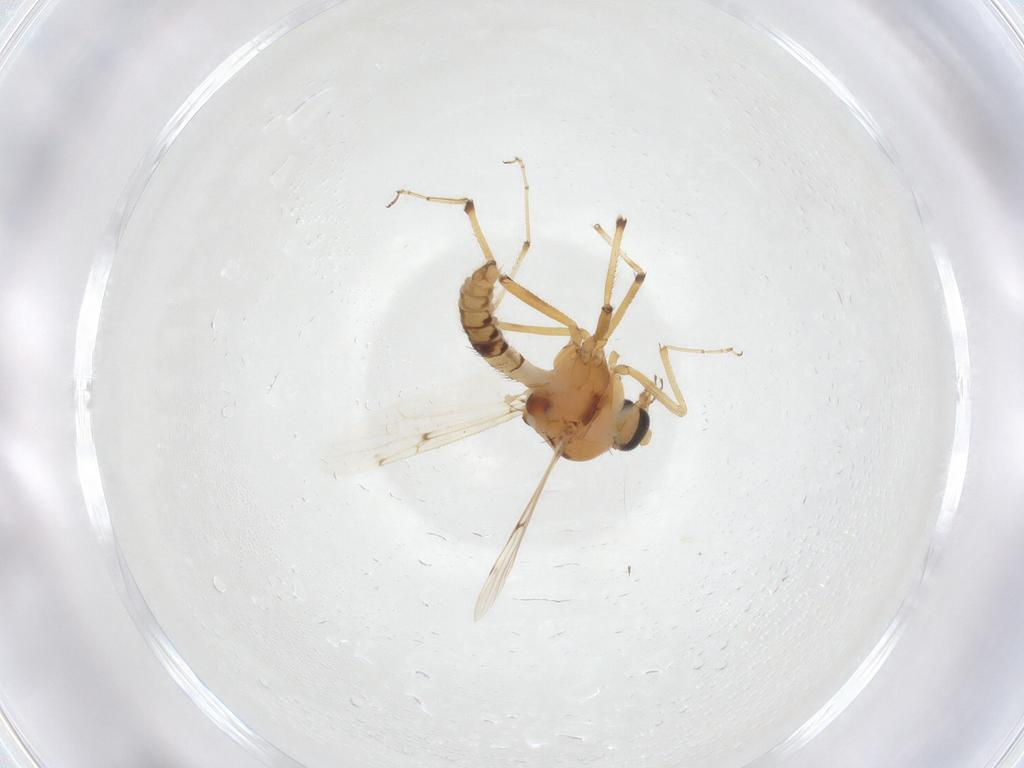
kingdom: Animalia
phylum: Arthropoda
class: Insecta
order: Diptera
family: Ceratopogonidae
